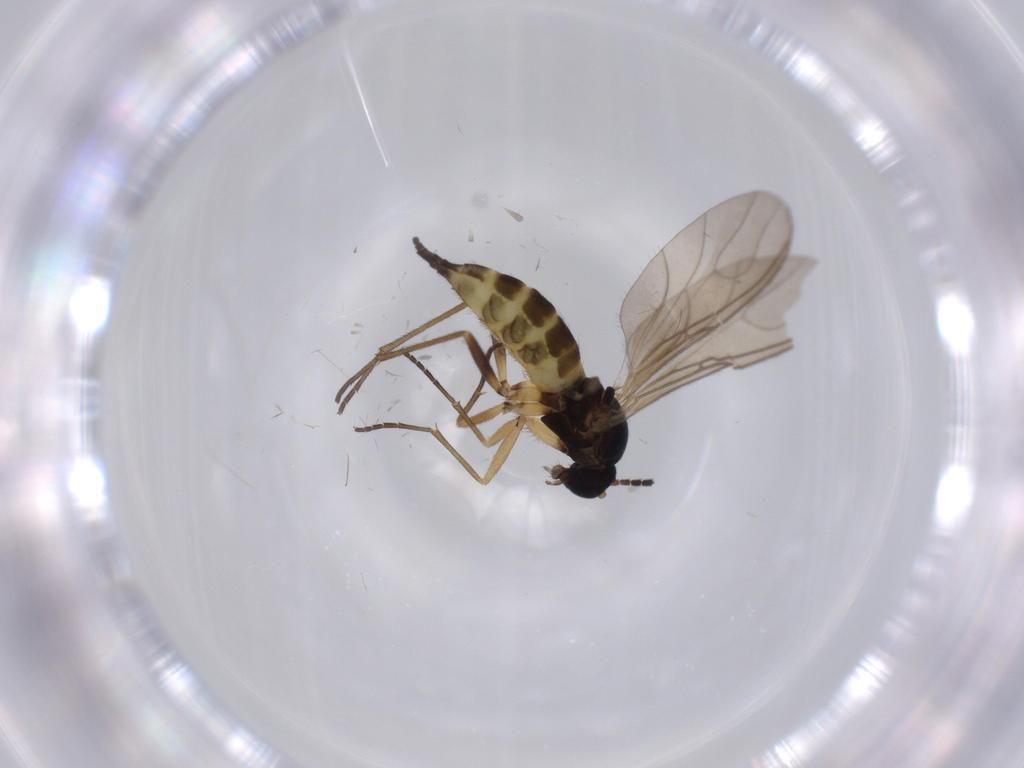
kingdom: Animalia
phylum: Arthropoda
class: Insecta
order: Diptera
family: Sciaridae
